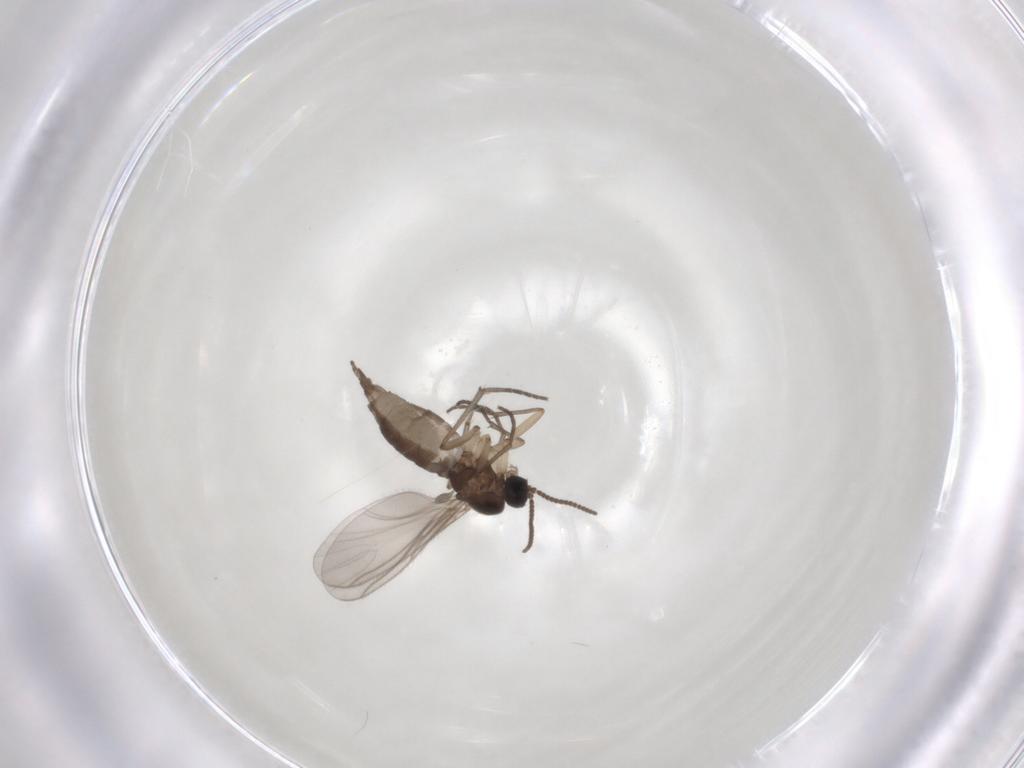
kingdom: Animalia
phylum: Arthropoda
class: Insecta
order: Diptera
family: Sciaridae
